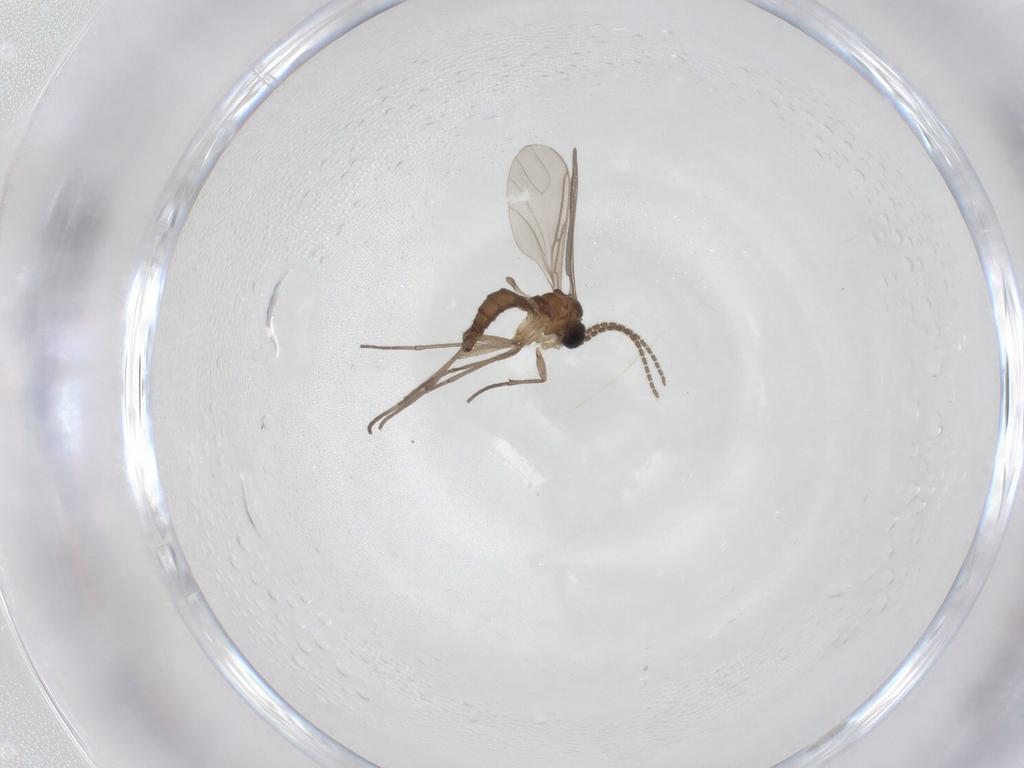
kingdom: Animalia
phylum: Arthropoda
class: Insecta
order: Diptera
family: Sciaridae
